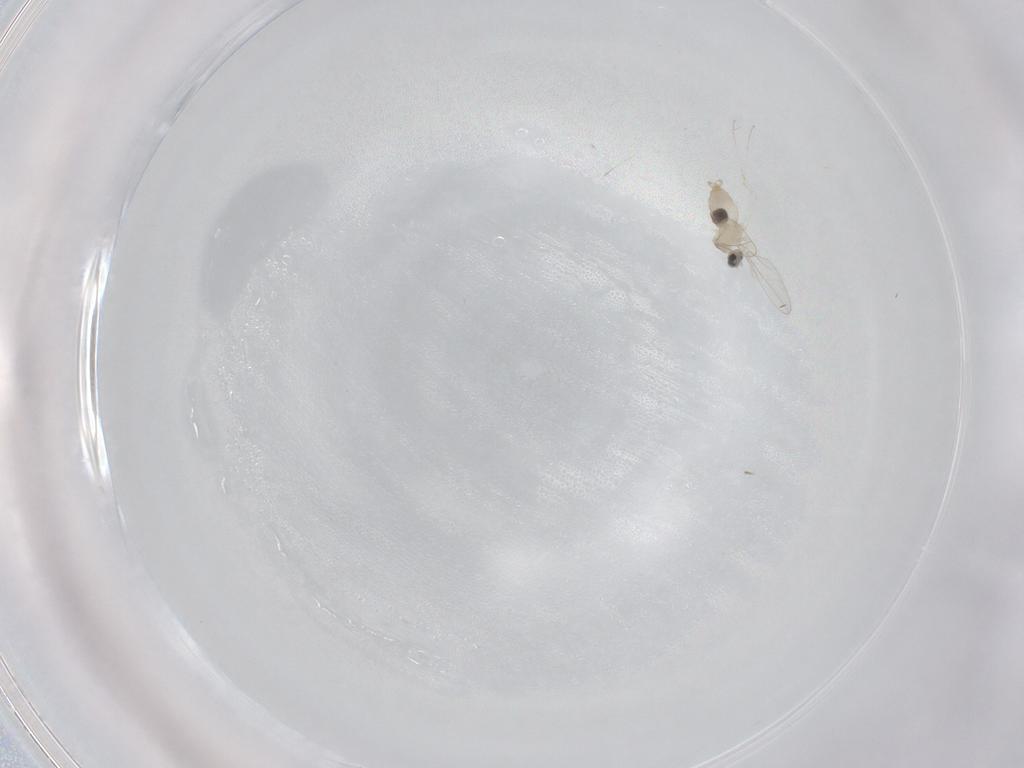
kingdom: Animalia
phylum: Arthropoda
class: Insecta
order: Diptera
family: Cecidomyiidae
